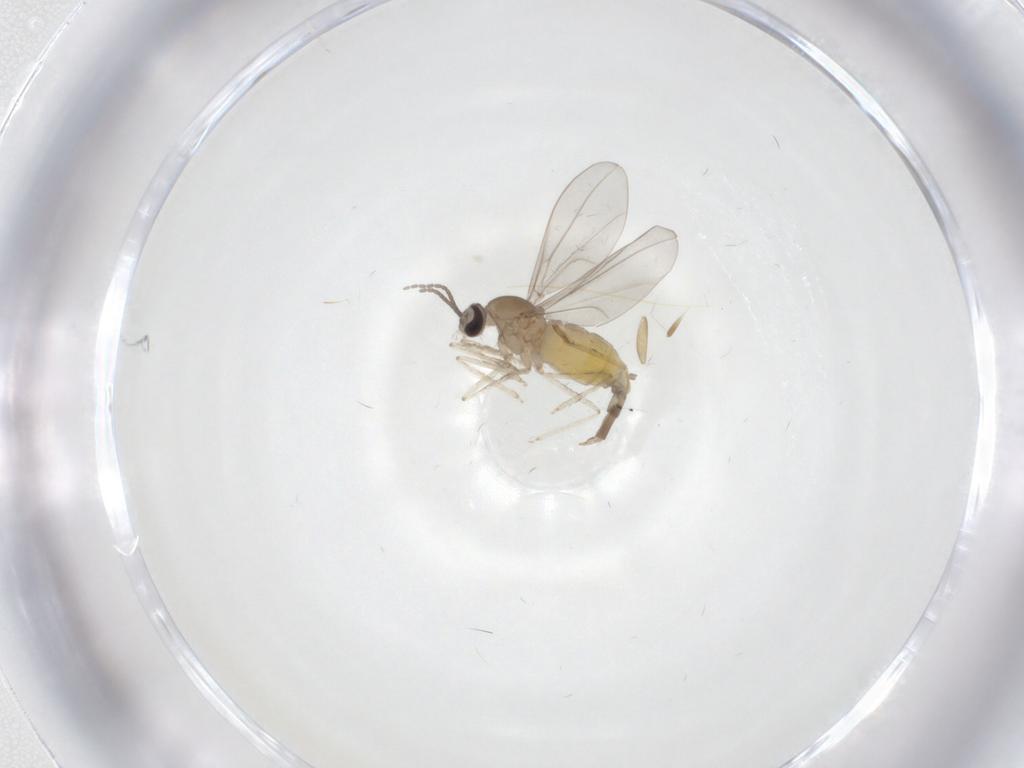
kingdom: Animalia
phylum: Arthropoda
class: Insecta
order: Diptera
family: Cecidomyiidae
